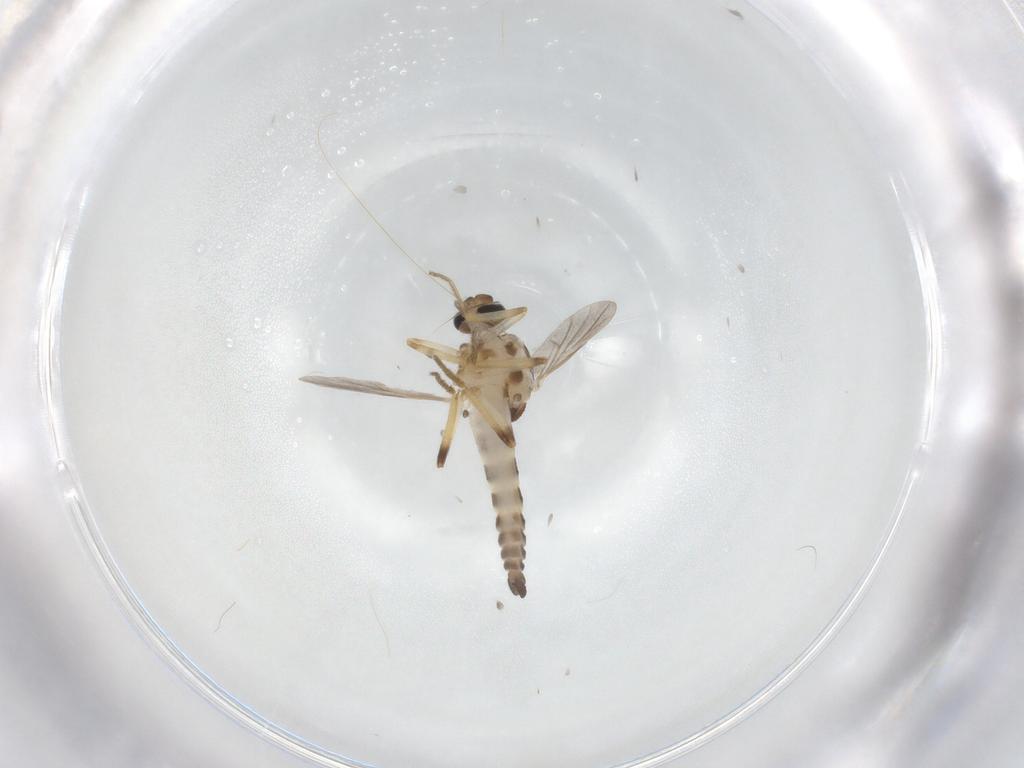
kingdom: Animalia
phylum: Arthropoda
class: Insecta
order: Diptera
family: Ceratopogonidae
